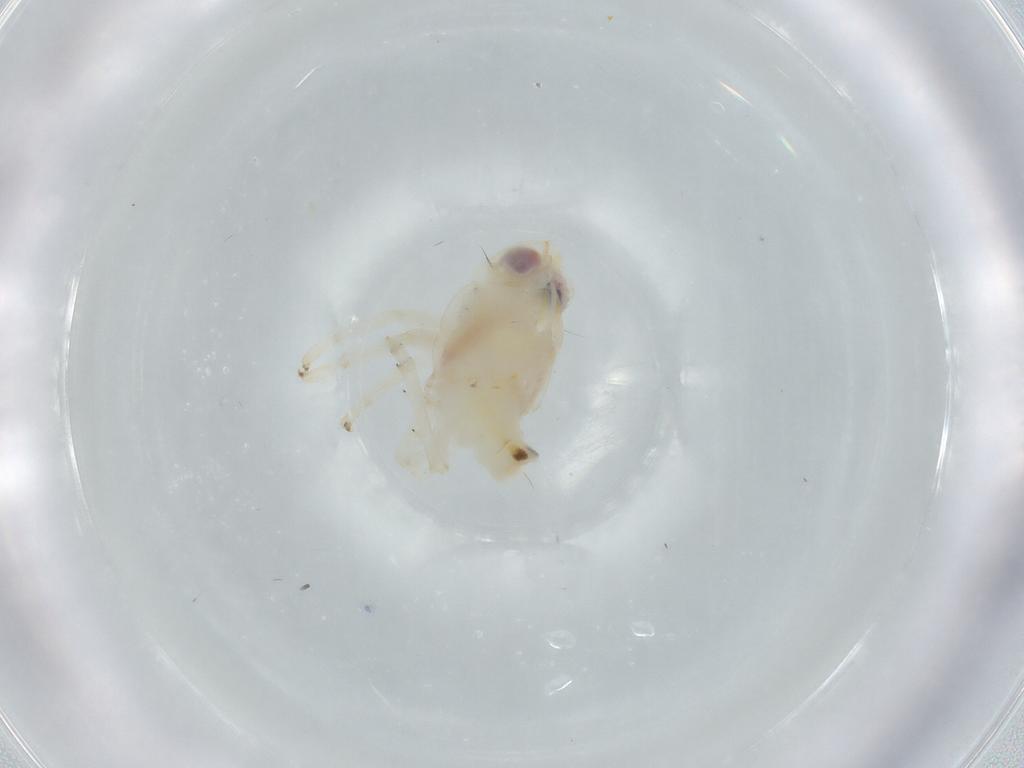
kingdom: Animalia
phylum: Arthropoda
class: Insecta
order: Hemiptera
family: Nogodinidae
